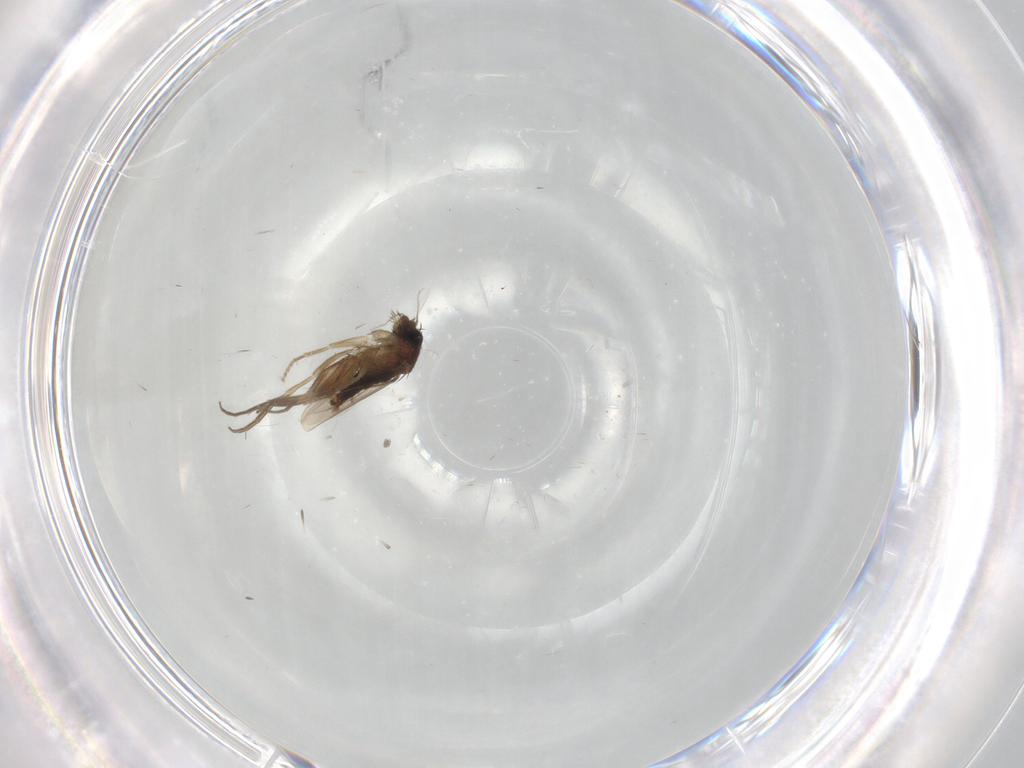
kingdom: Animalia
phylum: Arthropoda
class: Insecta
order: Diptera
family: Phoridae
